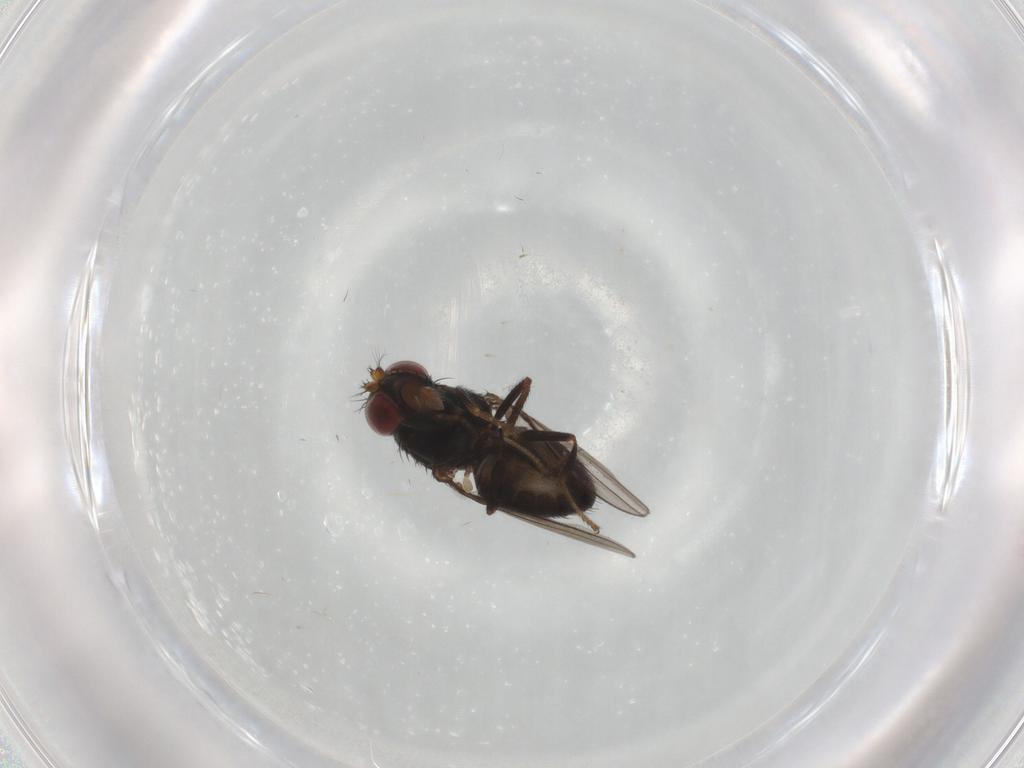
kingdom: Animalia
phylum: Arthropoda
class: Insecta
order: Diptera
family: Ephydridae
